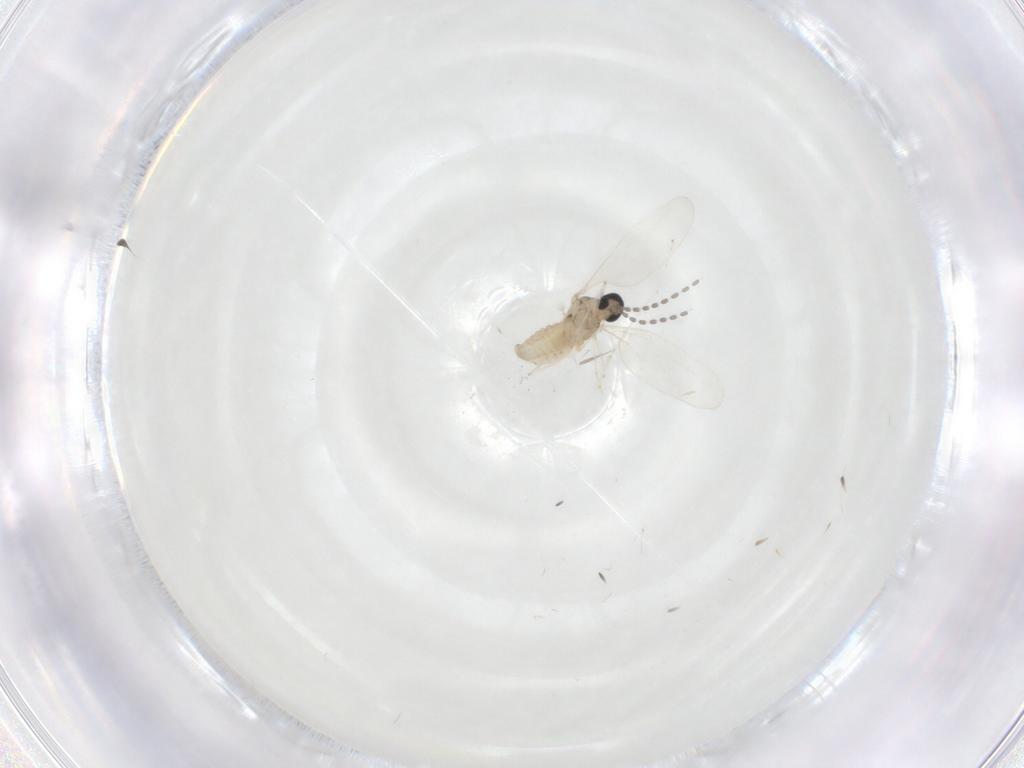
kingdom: Animalia
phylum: Arthropoda
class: Insecta
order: Diptera
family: Cecidomyiidae
